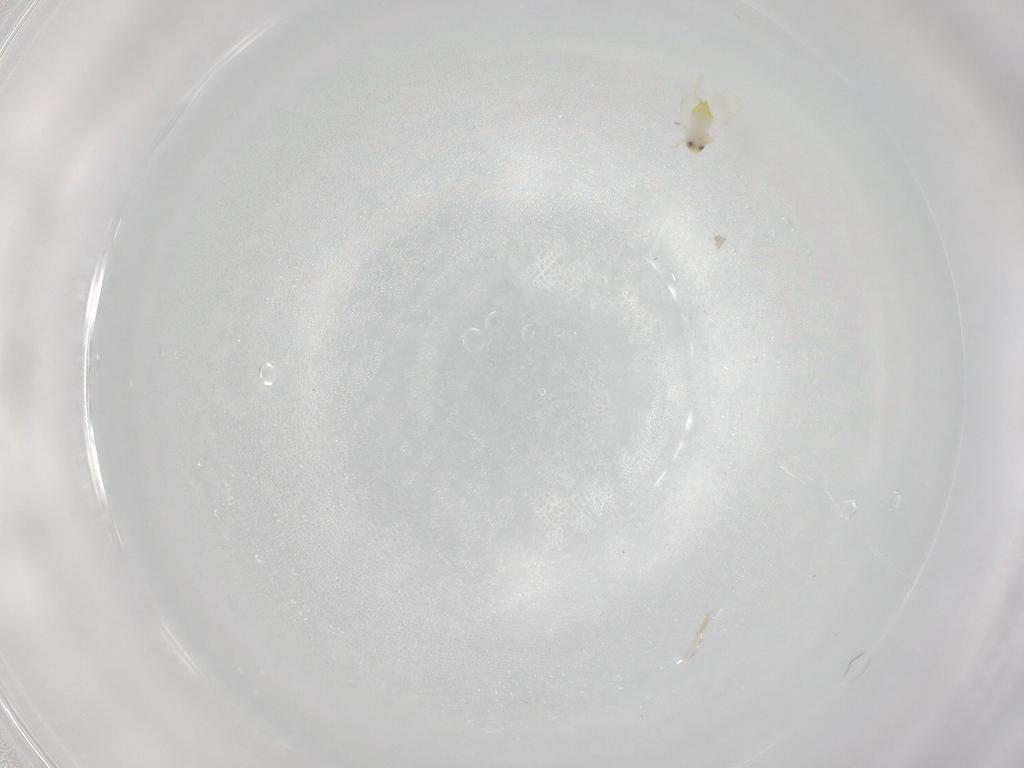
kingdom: Animalia
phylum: Arthropoda
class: Insecta
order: Hemiptera
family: Aleyrodidae
